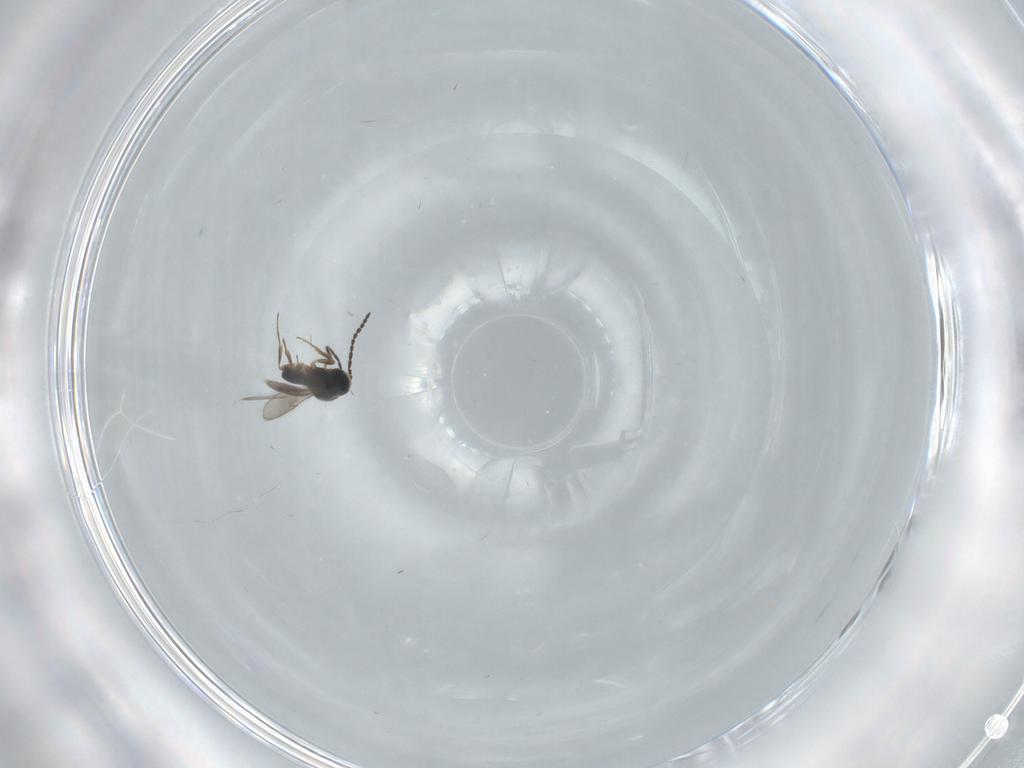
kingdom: Animalia
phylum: Arthropoda
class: Insecta
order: Hymenoptera
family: Scelionidae
